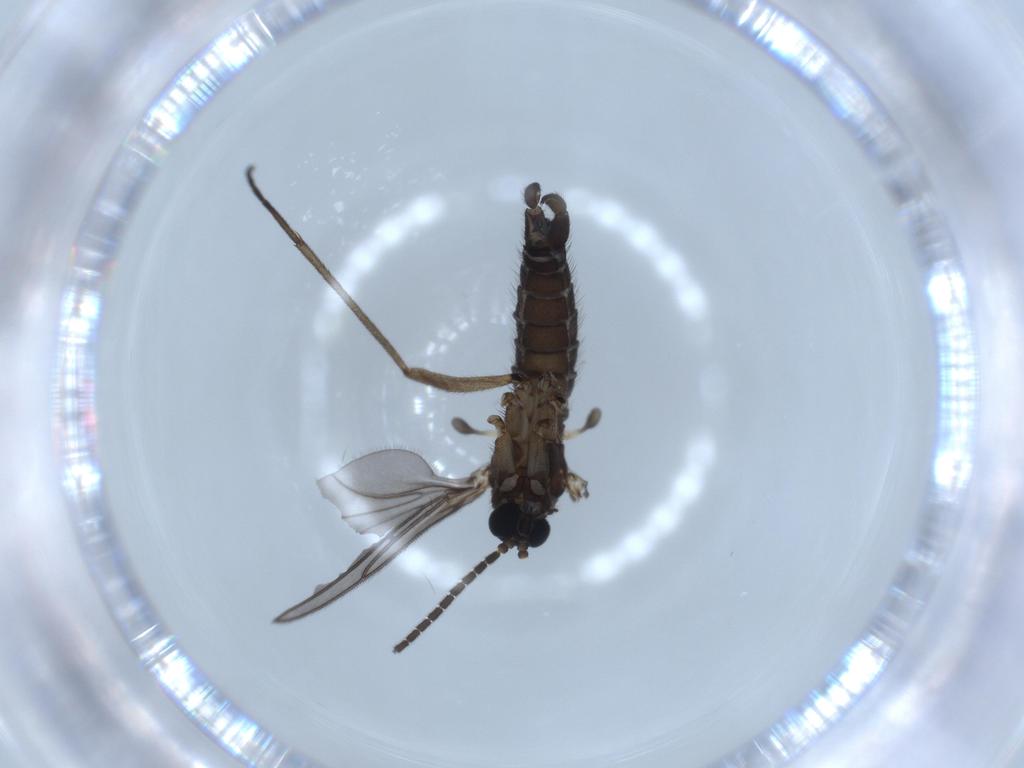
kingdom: Animalia
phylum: Arthropoda
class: Insecta
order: Diptera
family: Sciaridae
